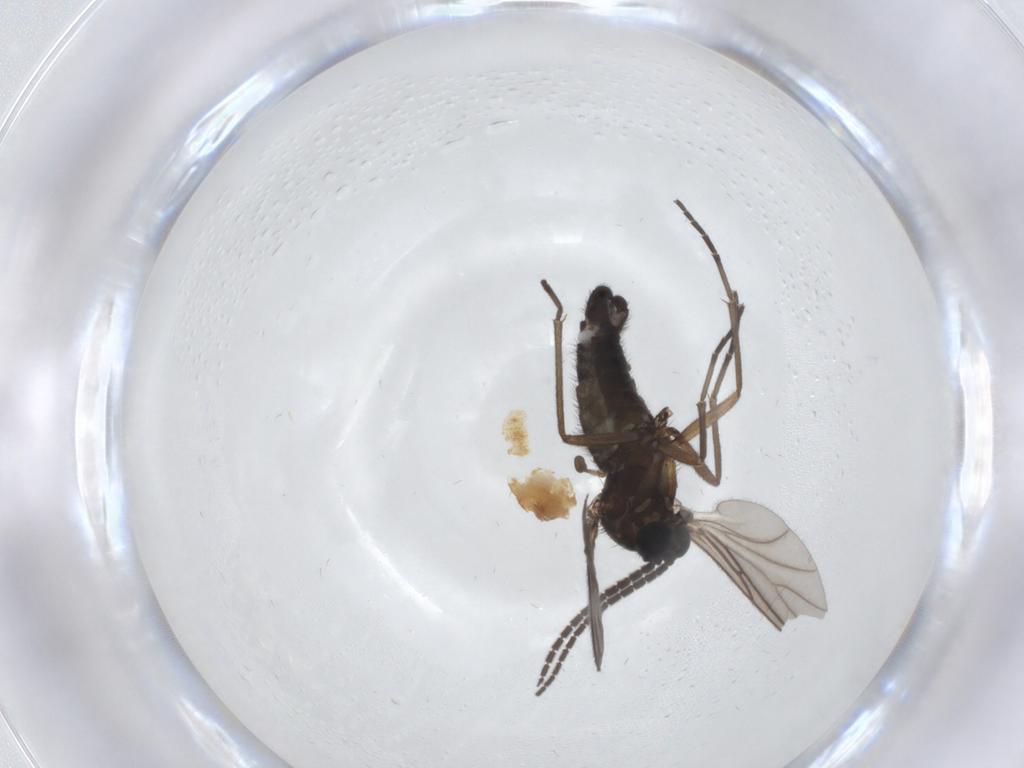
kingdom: Animalia
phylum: Arthropoda
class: Insecta
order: Diptera
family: Sciaridae
